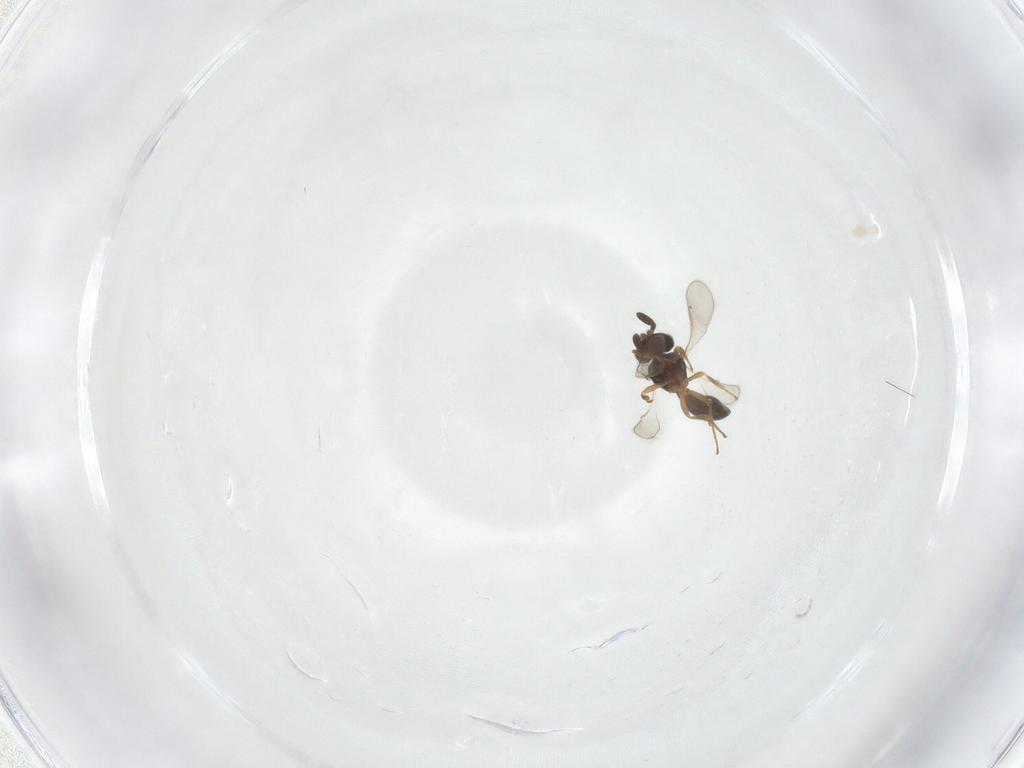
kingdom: Animalia
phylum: Arthropoda
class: Insecta
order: Hymenoptera
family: Scelionidae
